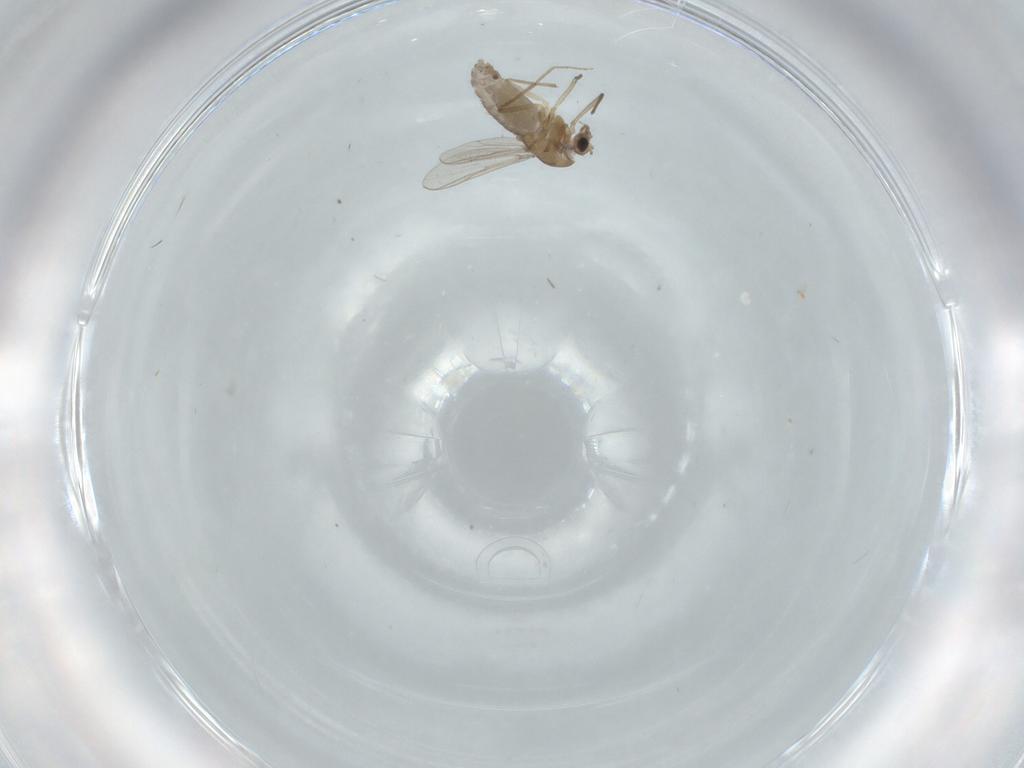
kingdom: Animalia
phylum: Arthropoda
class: Insecta
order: Diptera
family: Chironomidae
